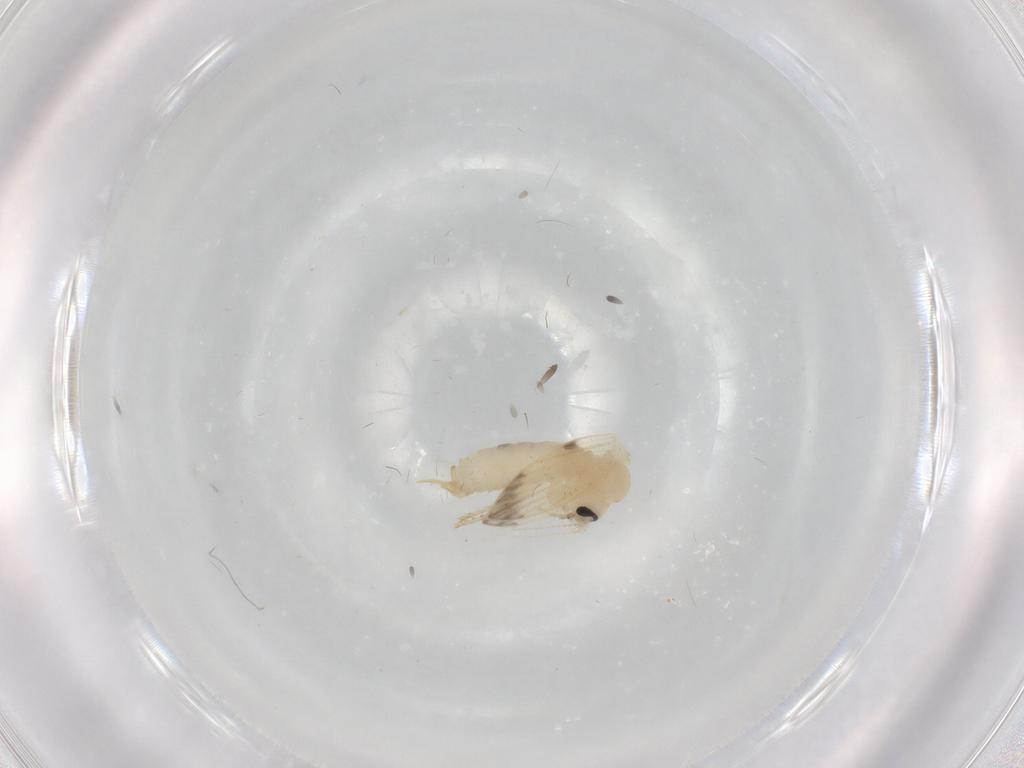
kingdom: Animalia
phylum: Arthropoda
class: Insecta
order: Diptera
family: Psychodidae
